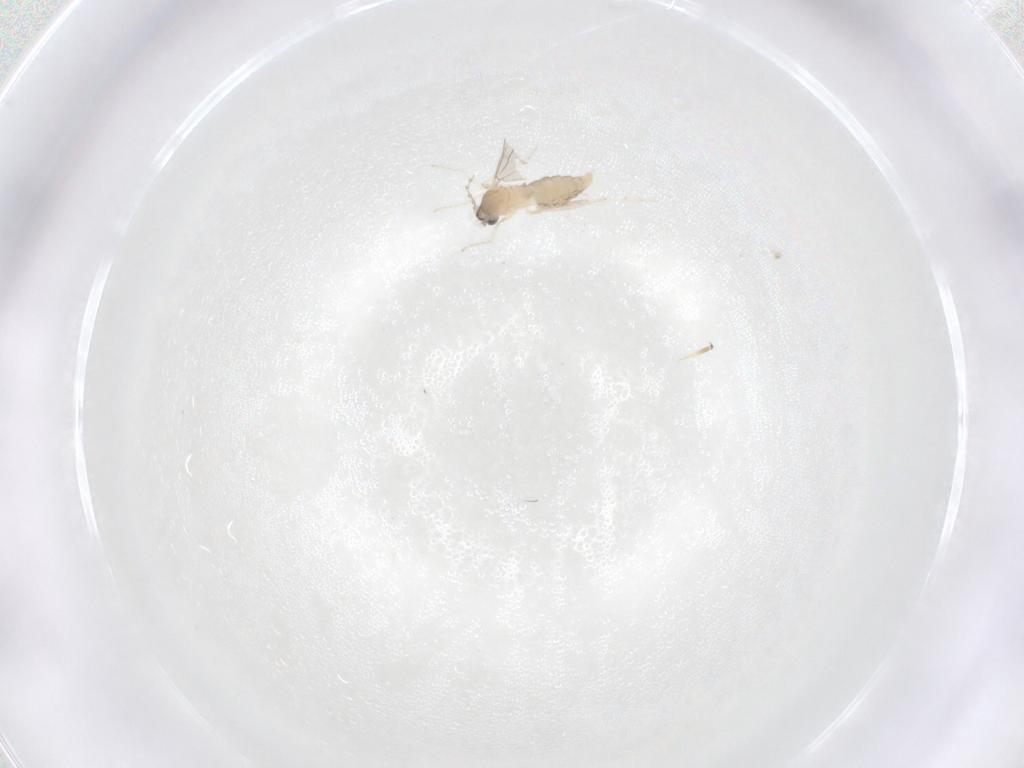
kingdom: Animalia
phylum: Arthropoda
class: Insecta
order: Diptera
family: Cecidomyiidae
